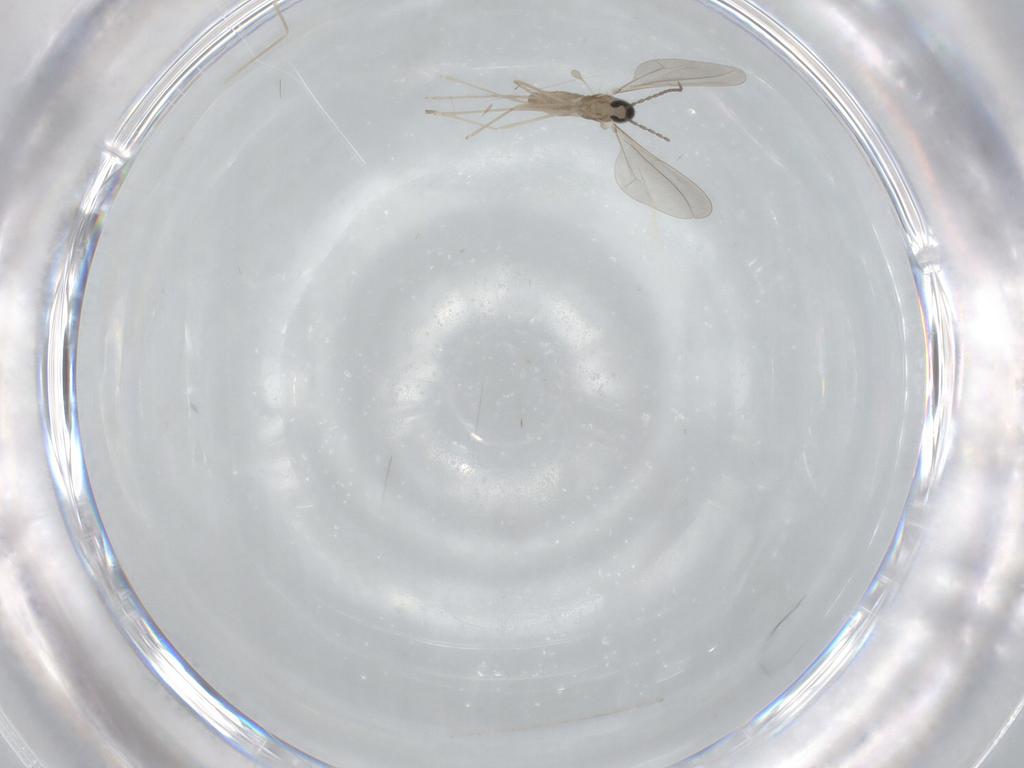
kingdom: Animalia
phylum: Arthropoda
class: Insecta
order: Diptera
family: Cecidomyiidae
